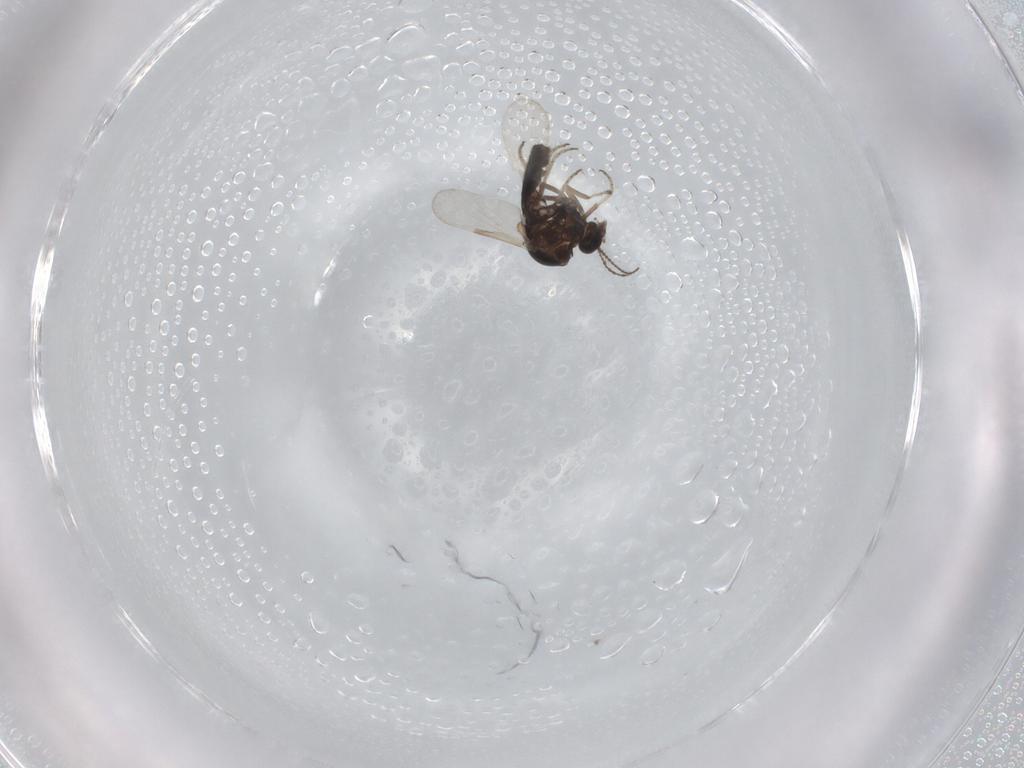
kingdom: Animalia
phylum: Arthropoda
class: Insecta
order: Diptera
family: Ceratopogonidae
